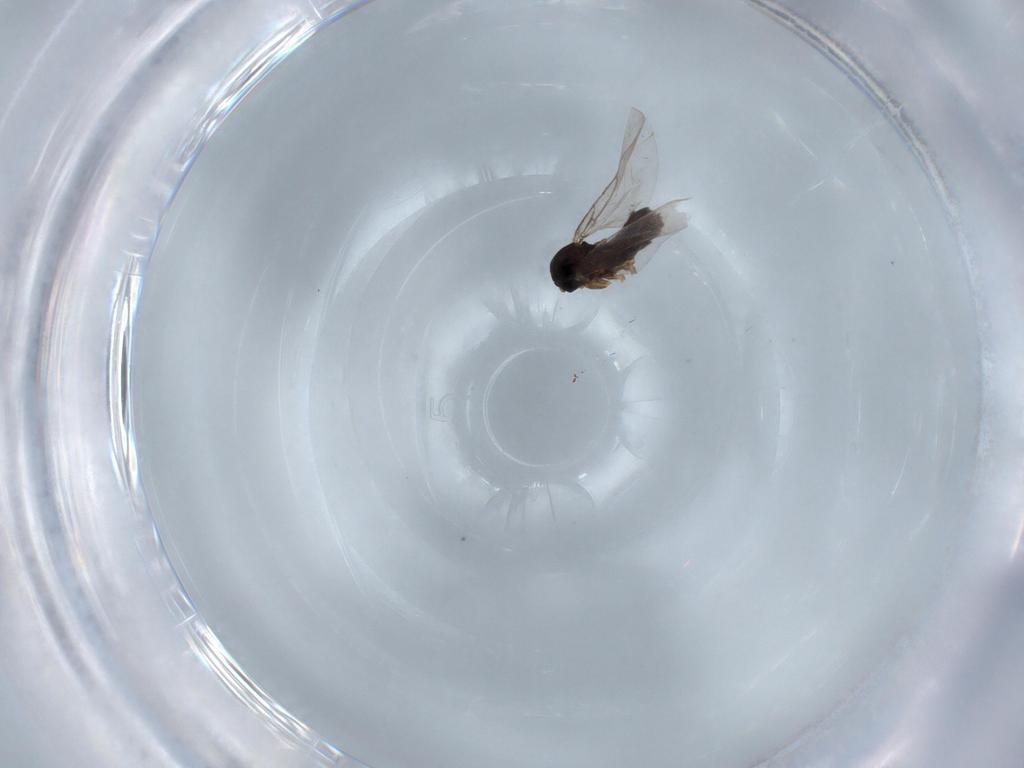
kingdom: Animalia
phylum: Arthropoda
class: Insecta
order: Diptera
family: Hybotidae
